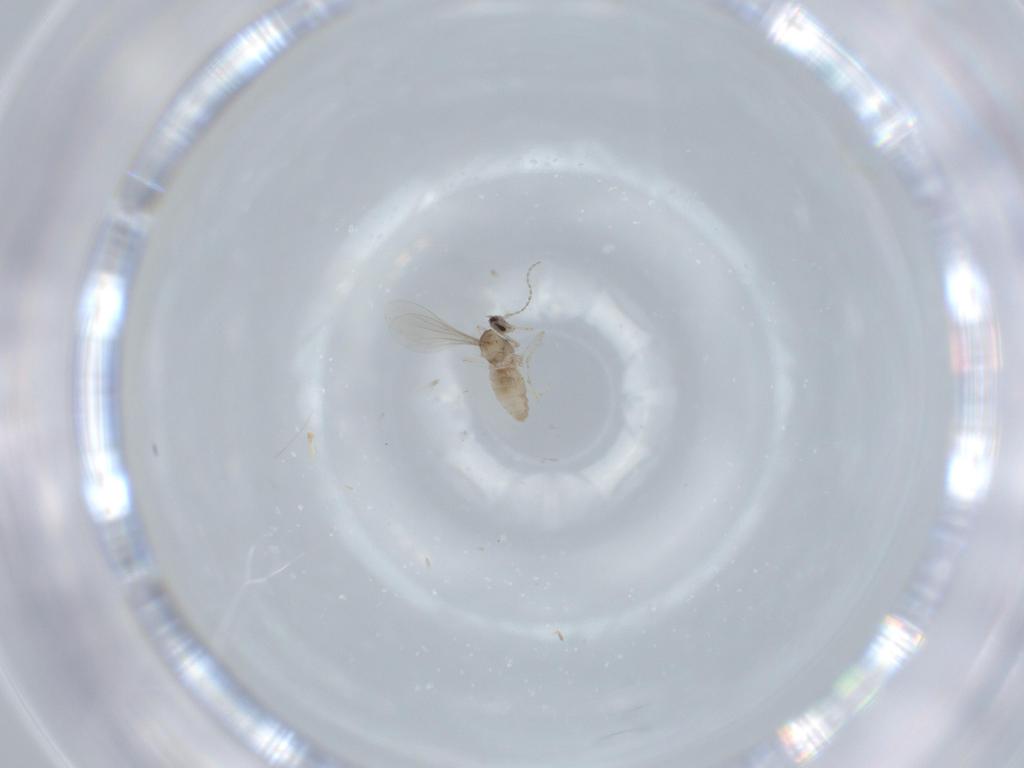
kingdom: Animalia
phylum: Arthropoda
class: Insecta
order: Diptera
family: Cecidomyiidae
